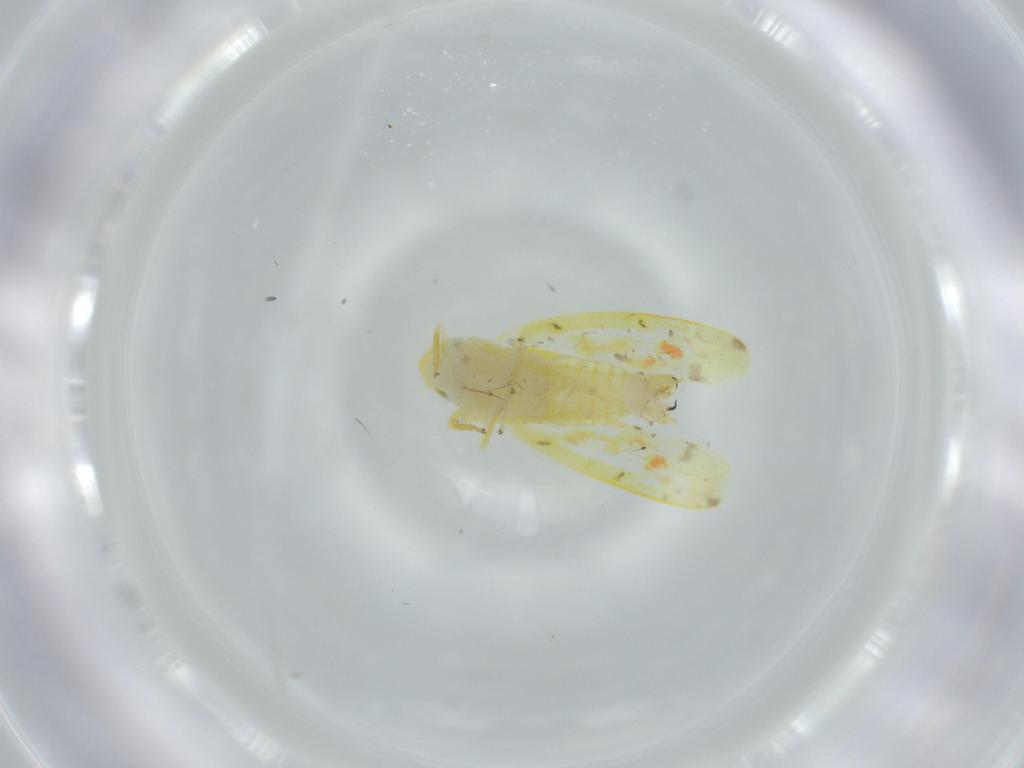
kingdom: Animalia
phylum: Arthropoda
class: Insecta
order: Hemiptera
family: Cicadellidae
